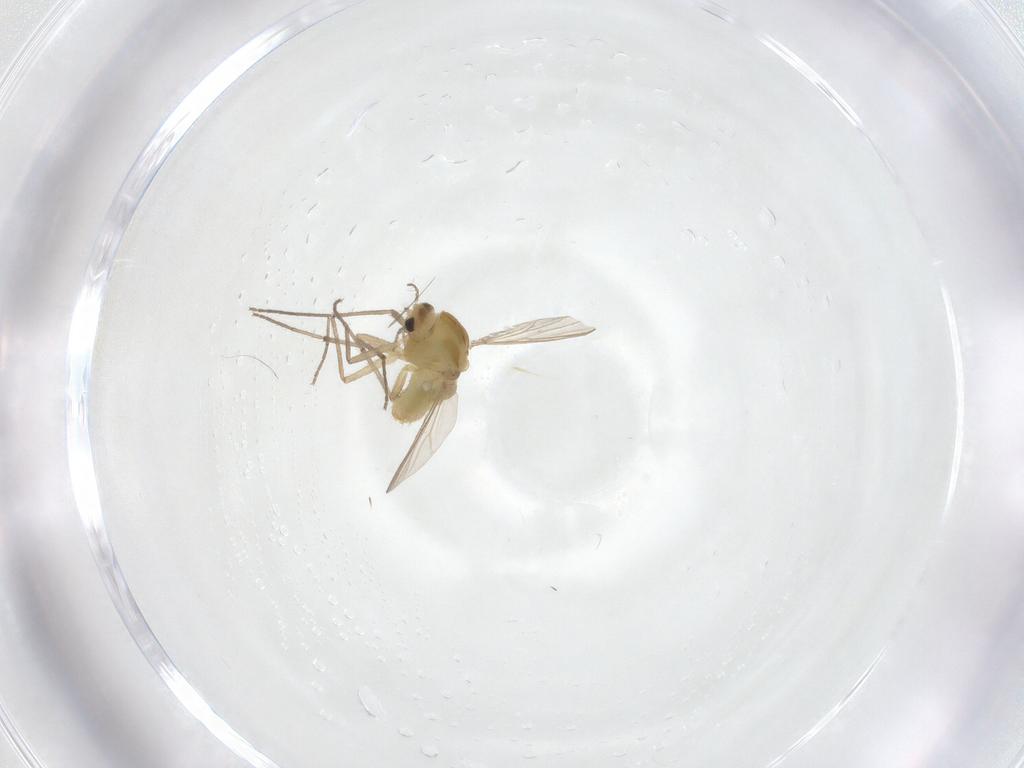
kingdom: Animalia
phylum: Arthropoda
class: Insecta
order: Diptera
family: Chironomidae
